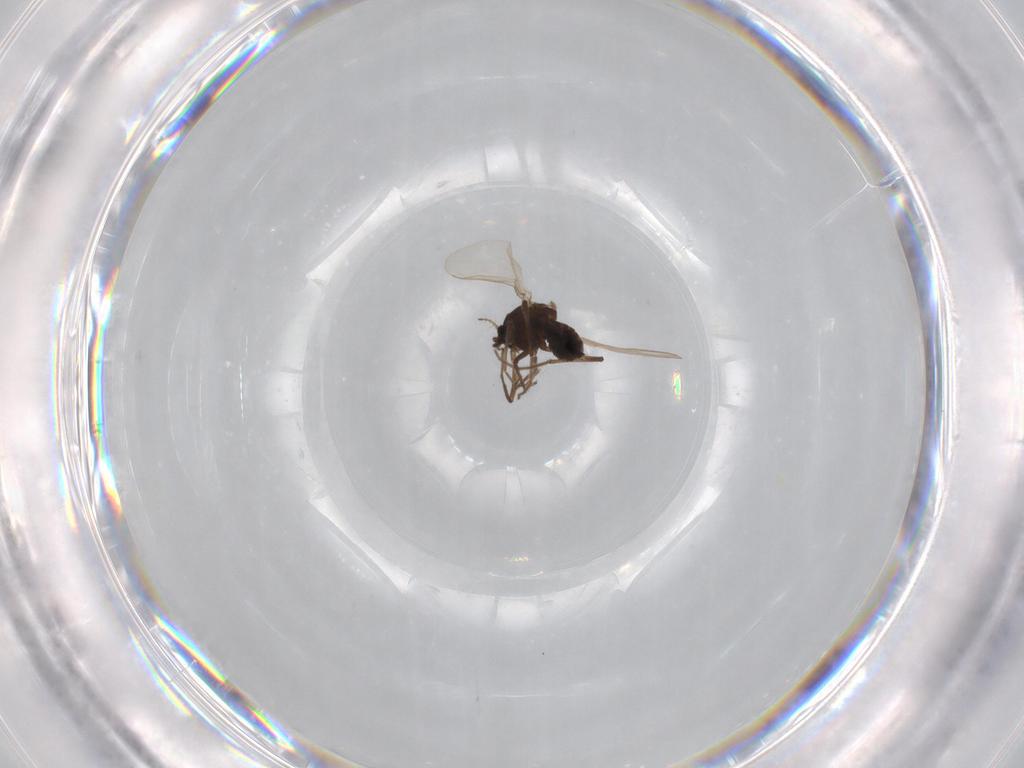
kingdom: Animalia
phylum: Arthropoda
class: Insecta
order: Diptera
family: Chironomidae
